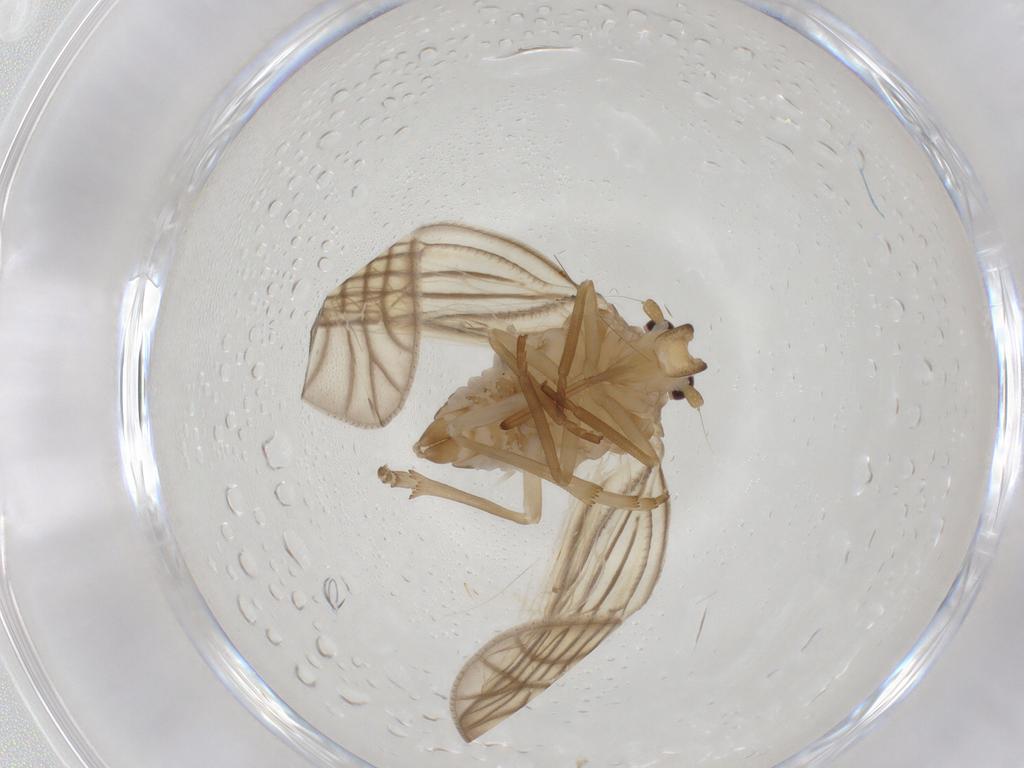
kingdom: Animalia
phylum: Arthropoda
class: Insecta
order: Hemiptera
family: Meenoplidae
